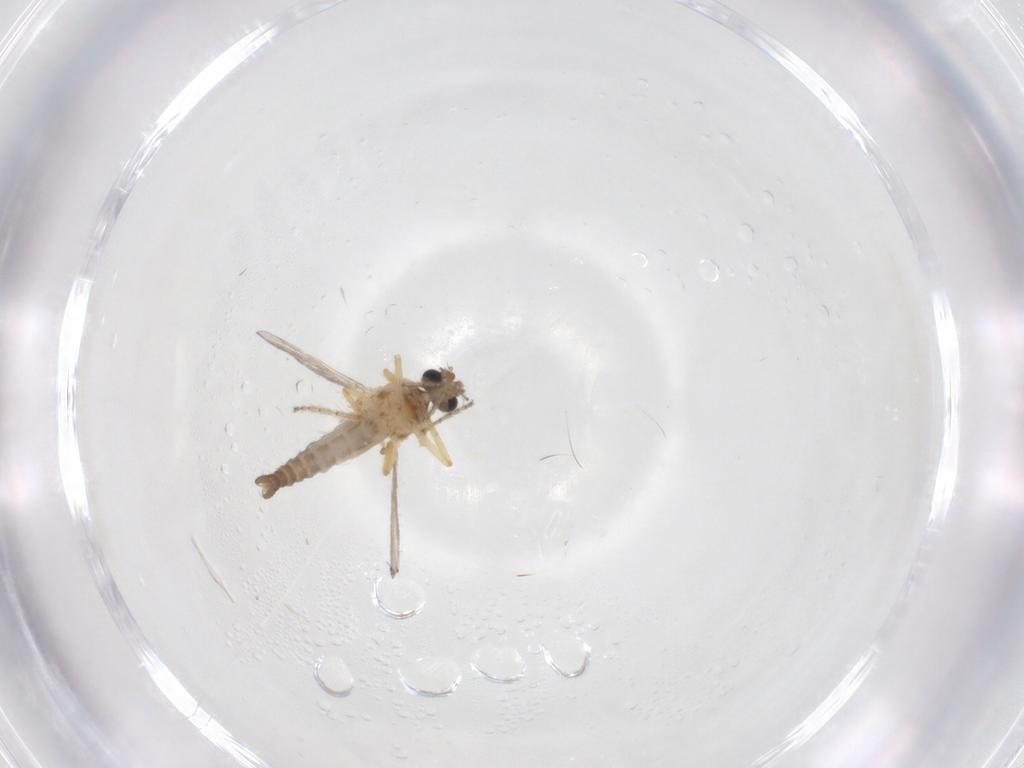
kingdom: Animalia
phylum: Arthropoda
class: Insecta
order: Diptera
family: Ceratopogonidae
